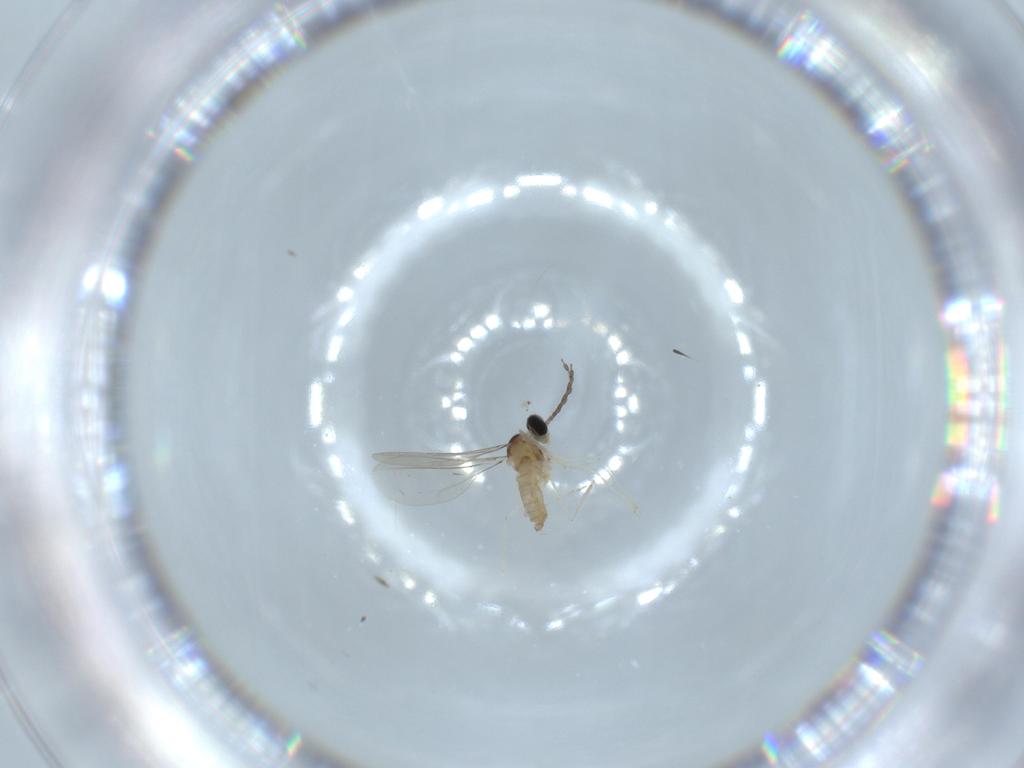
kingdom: Animalia
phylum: Arthropoda
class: Insecta
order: Diptera
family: Cecidomyiidae
